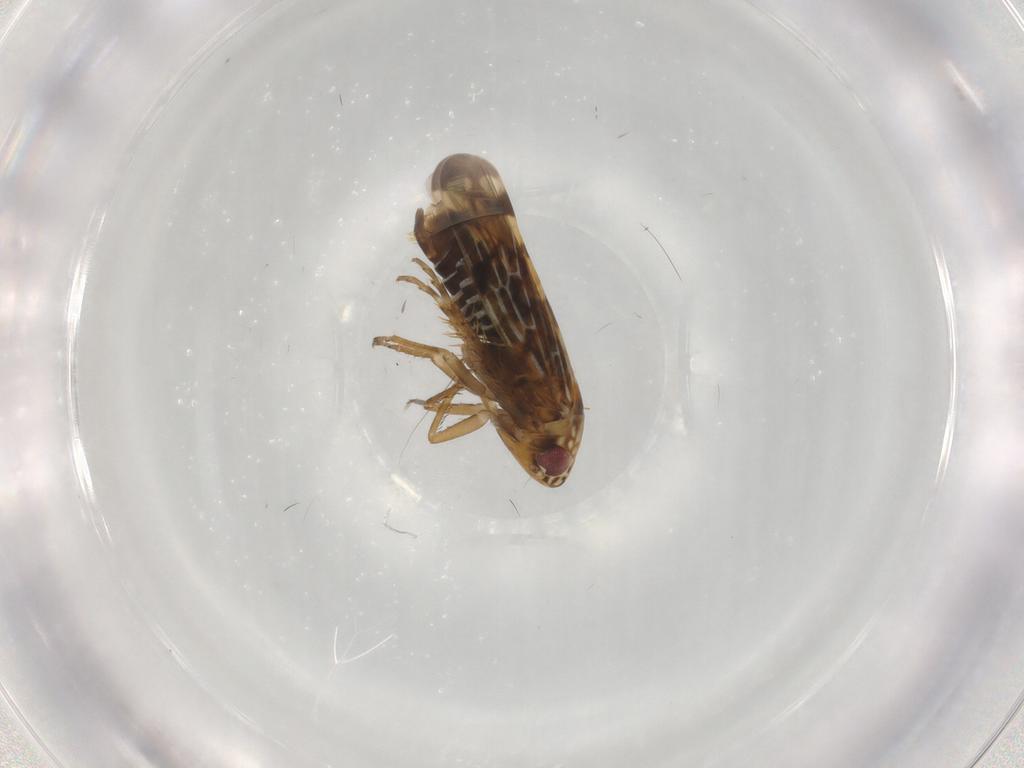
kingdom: Animalia
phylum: Arthropoda
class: Insecta
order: Hemiptera
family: Cicadellidae
